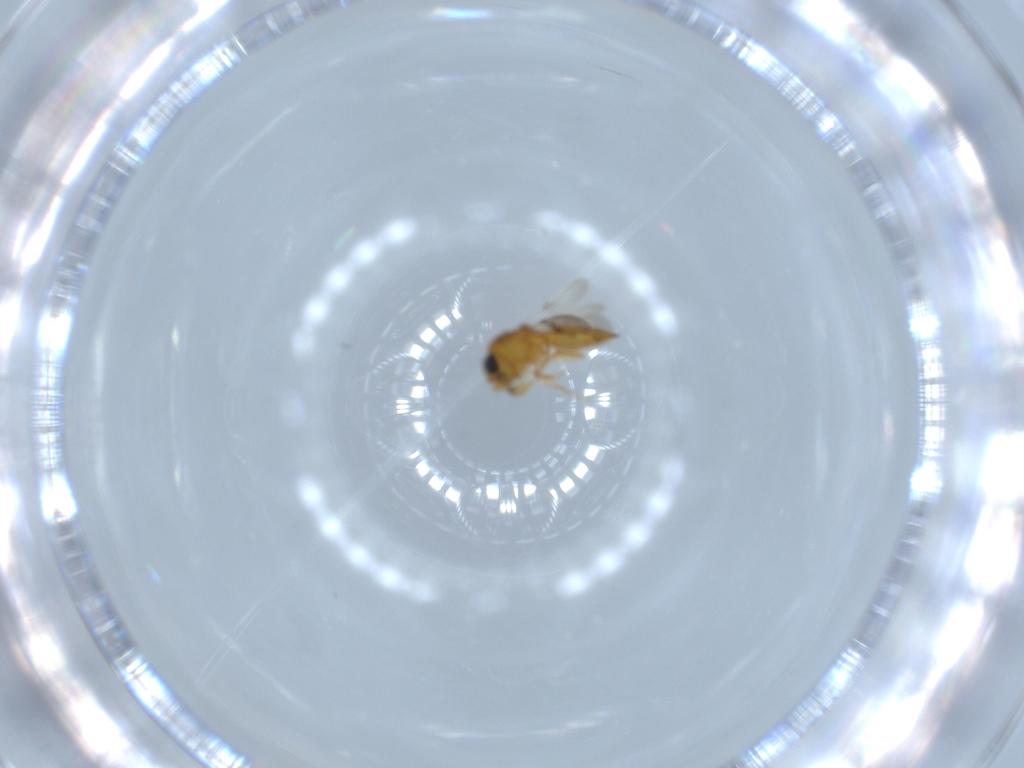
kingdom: Animalia
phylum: Arthropoda
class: Insecta
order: Hymenoptera
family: Scelionidae
